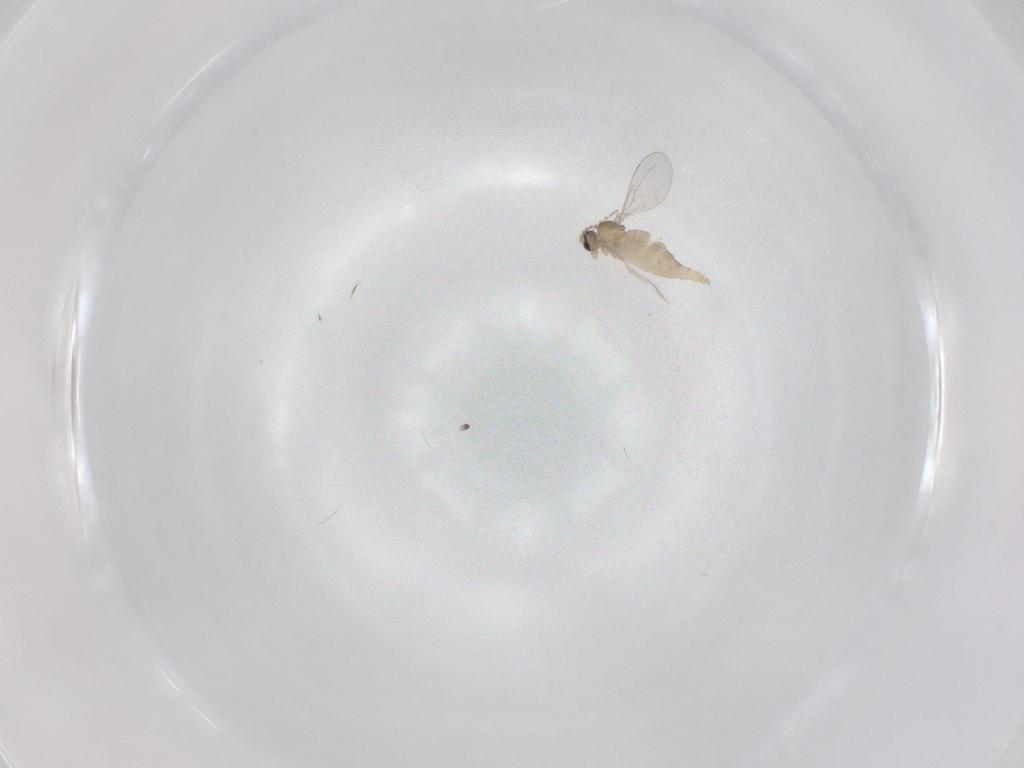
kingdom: Animalia
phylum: Arthropoda
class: Insecta
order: Diptera
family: Cecidomyiidae
